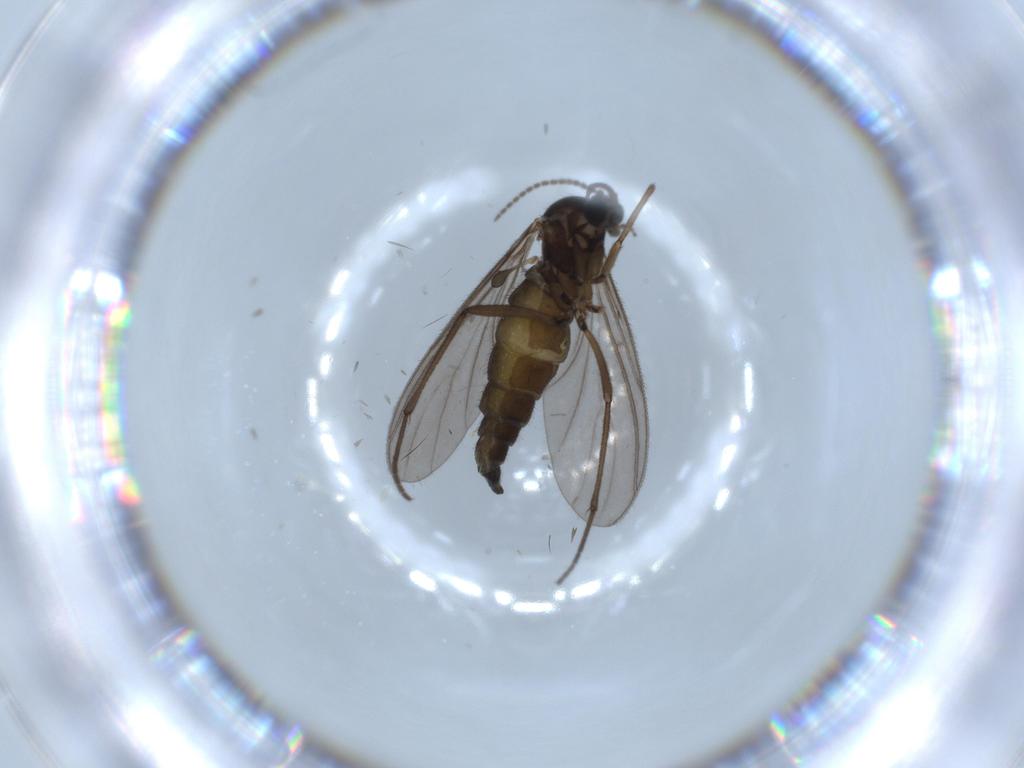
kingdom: Animalia
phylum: Arthropoda
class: Insecta
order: Diptera
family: Sciaridae
